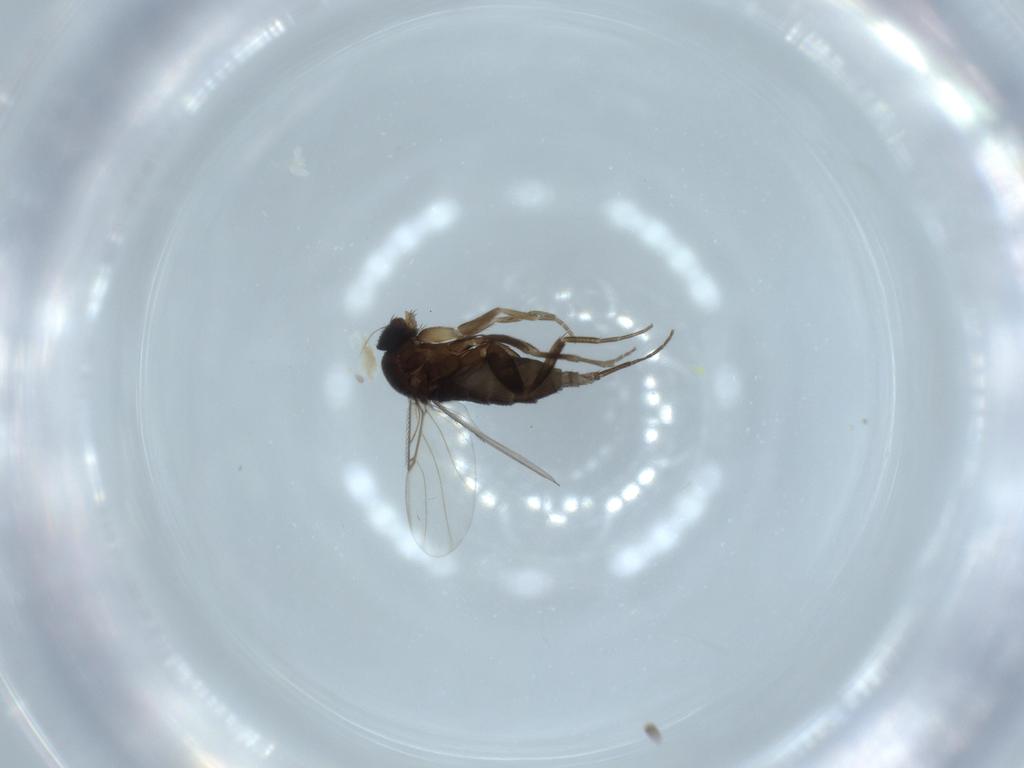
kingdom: Animalia
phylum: Arthropoda
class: Insecta
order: Diptera
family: Phoridae
